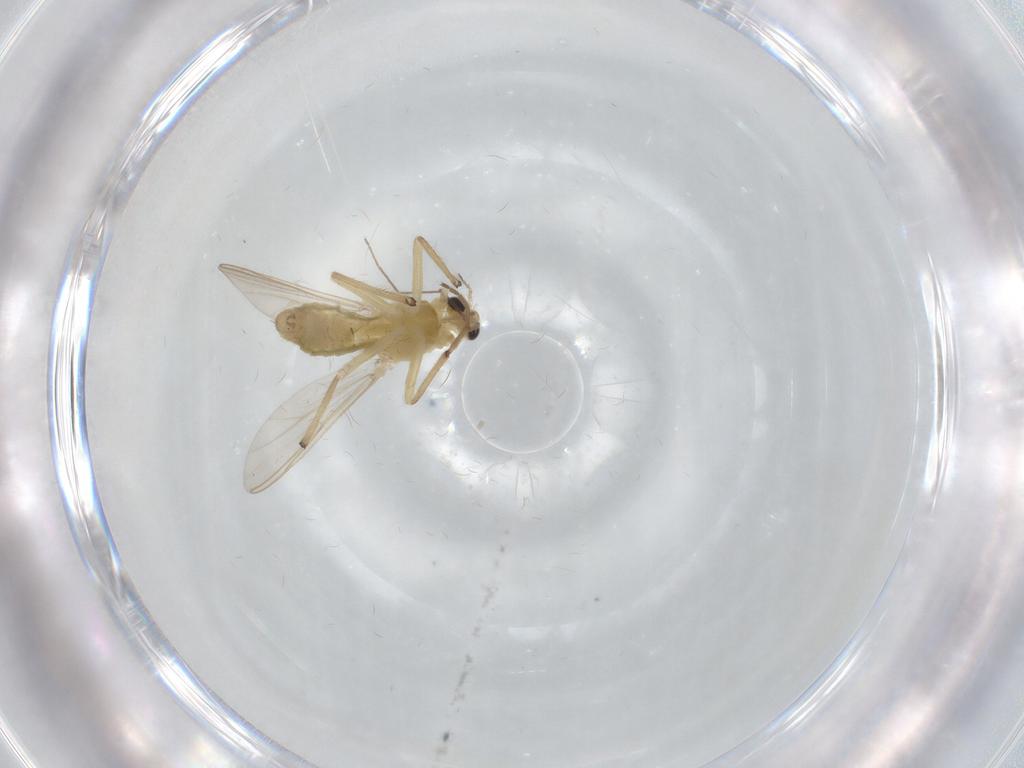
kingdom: Animalia
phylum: Arthropoda
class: Insecta
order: Diptera
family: Chironomidae
